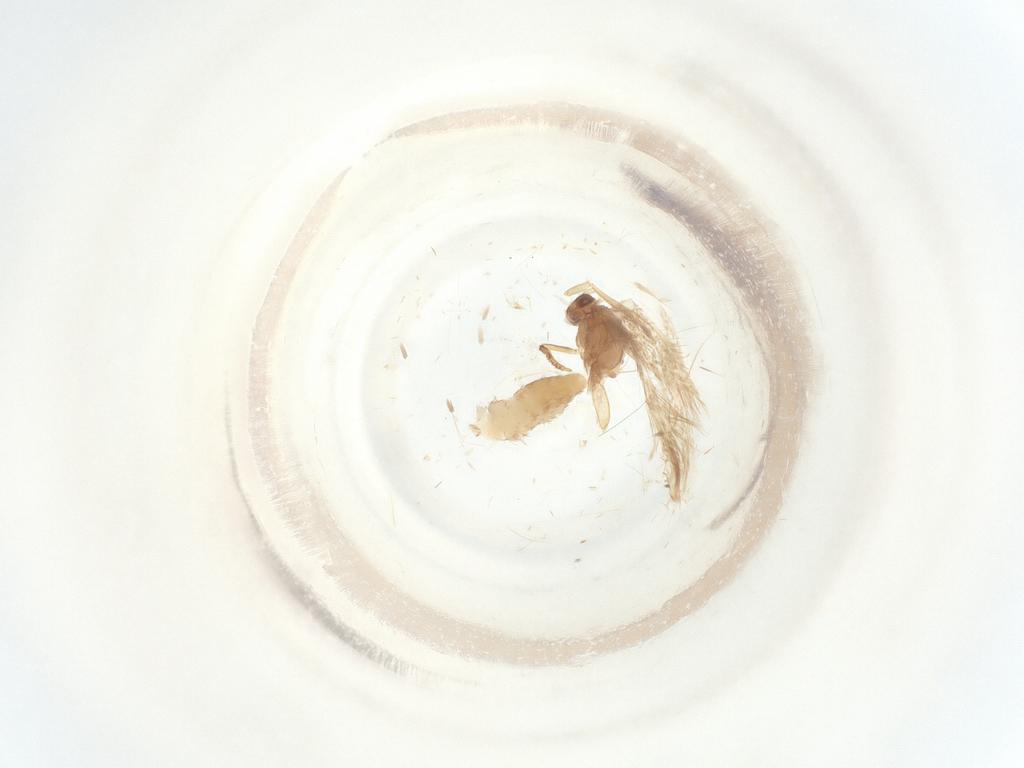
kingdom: Animalia
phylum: Arthropoda
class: Insecta
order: Lepidoptera
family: Nepticulidae
